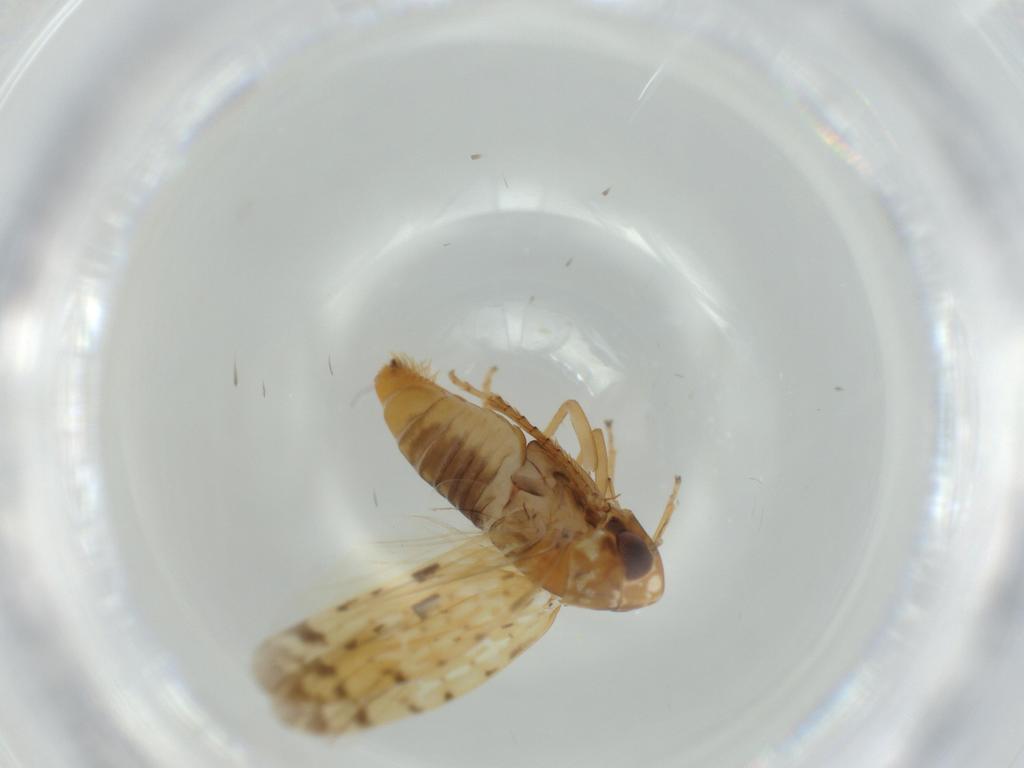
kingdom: Animalia
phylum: Arthropoda
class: Insecta
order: Hemiptera
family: Cicadellidae
